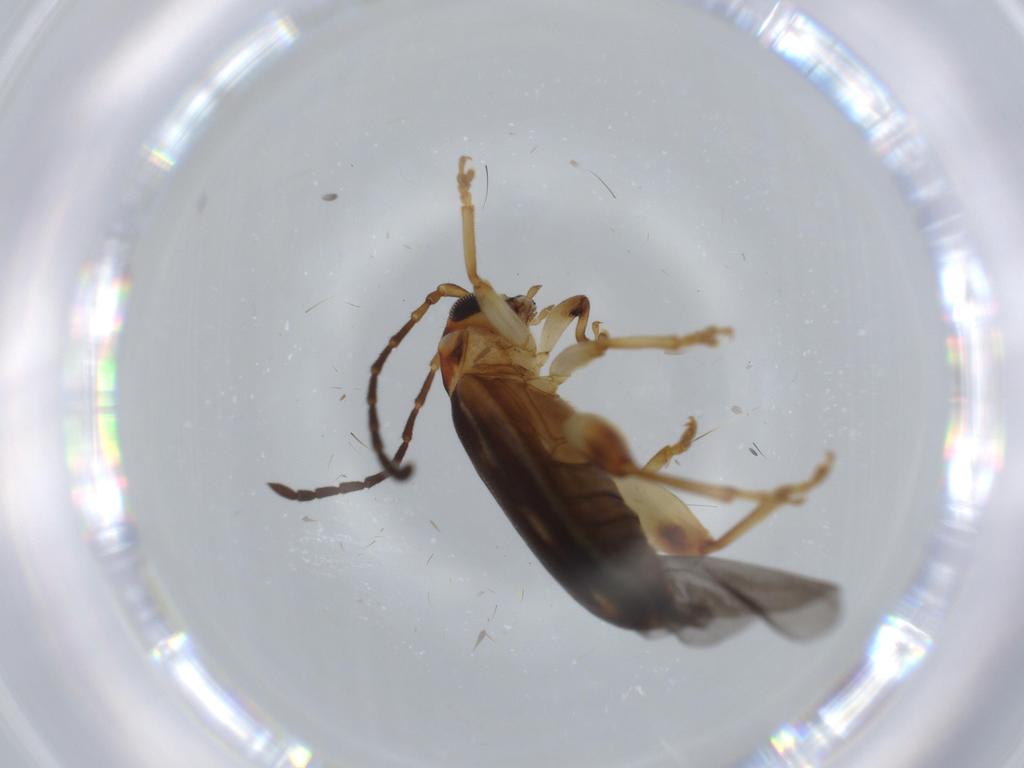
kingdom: Animalia
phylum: Arthropoda
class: Insecta
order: Coleoptera
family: Chrysomelidae
